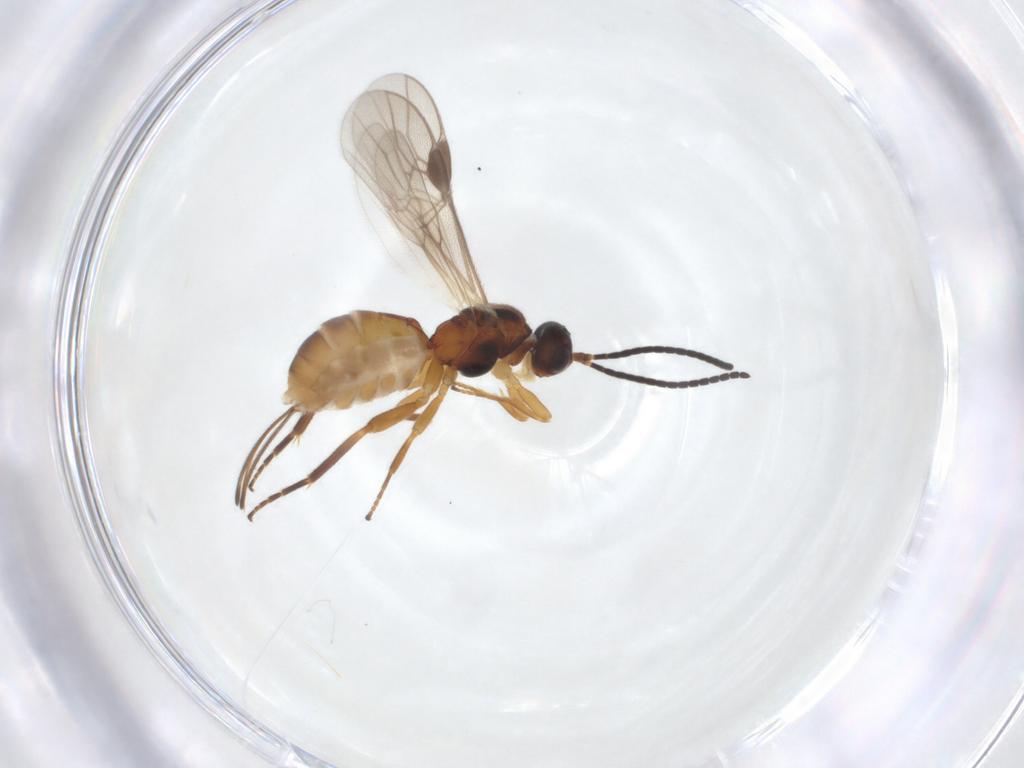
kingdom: Animalia
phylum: Arthropoda
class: Insecta
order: Hymenoptera
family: Braconidae
